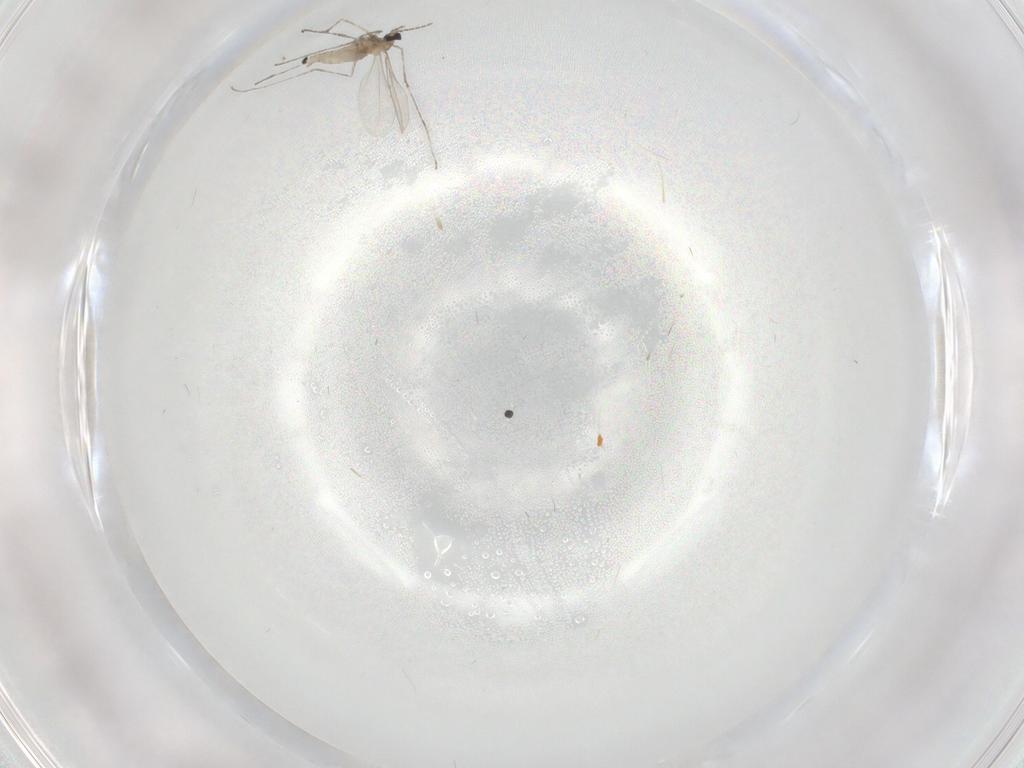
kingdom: Animalia
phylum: Arthropoda
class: Insecta
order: Diptera
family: Cecidomyiidae
